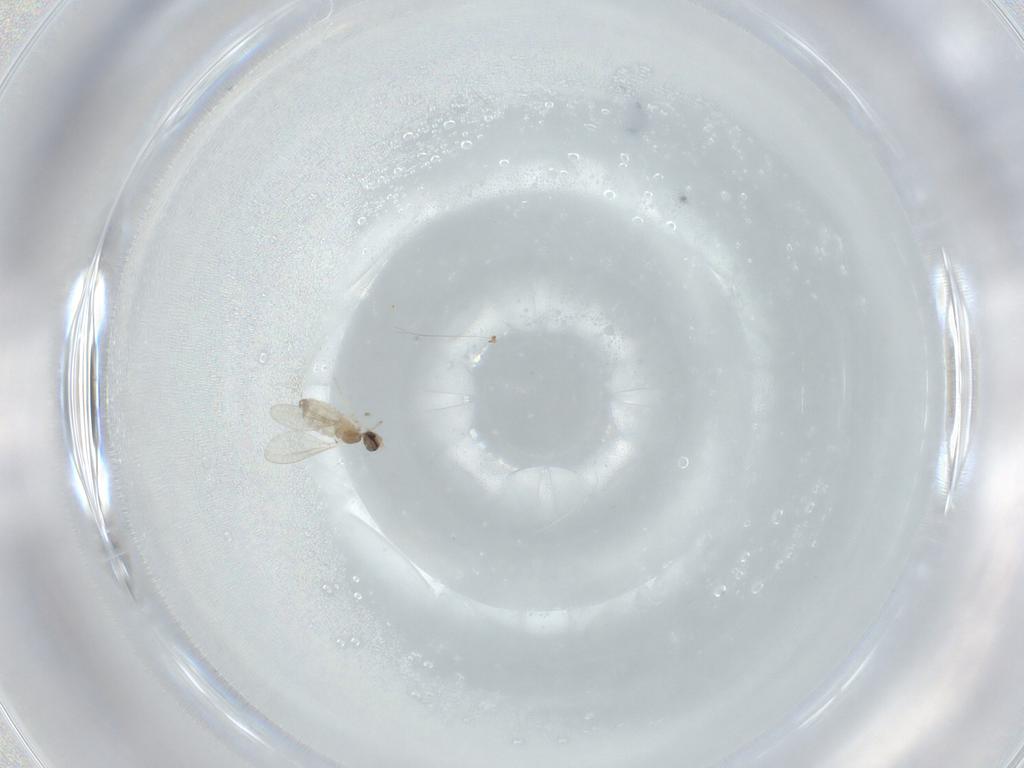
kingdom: Animalia
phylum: Arthropoda
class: Insecta
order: Diptera
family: Cecidomyiidae
